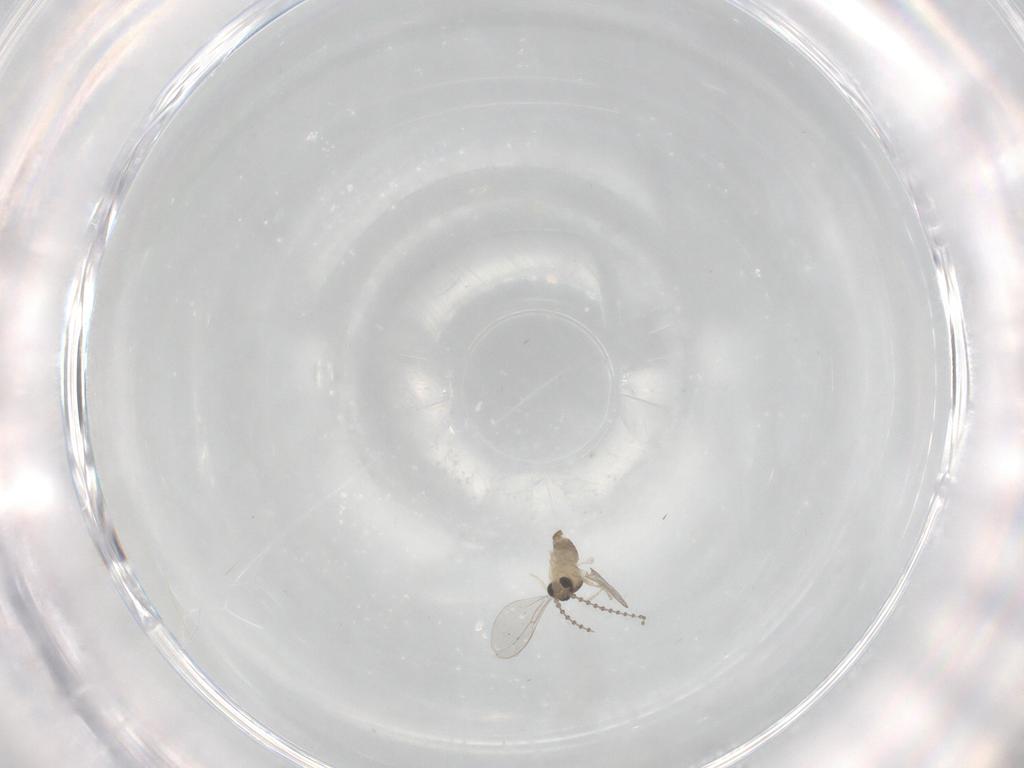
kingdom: Animalia
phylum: Arthropoda
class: Insecta
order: Diptera
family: Cecidomyiidae
